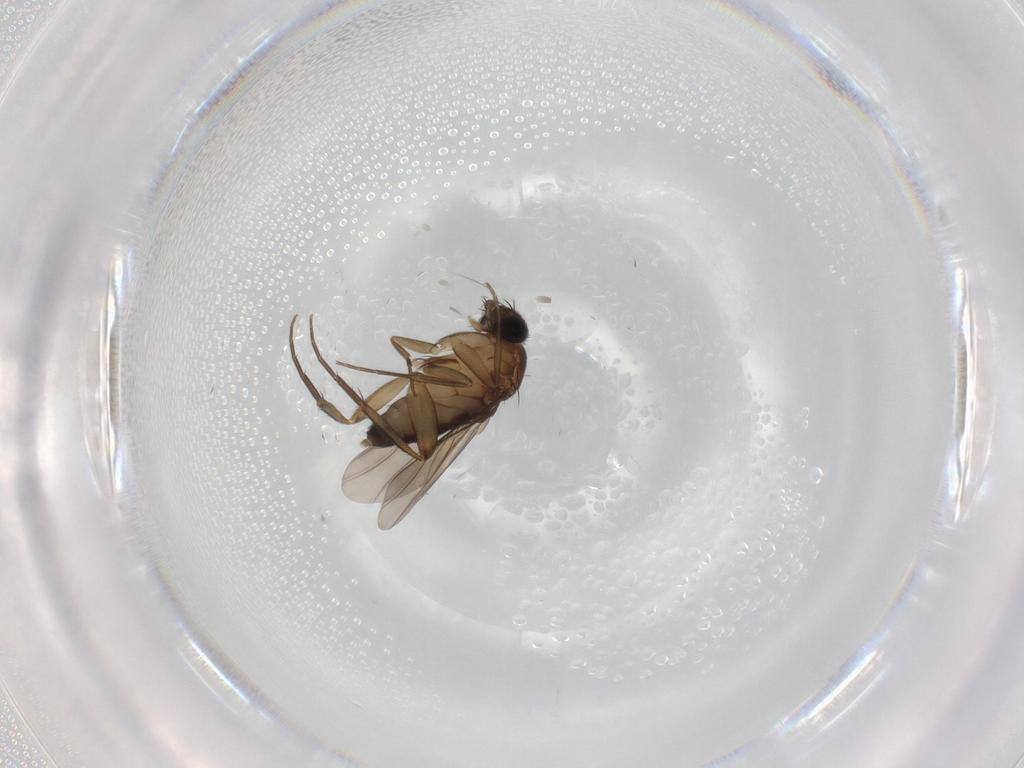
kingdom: Animalia
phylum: Arthropoda
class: Insecta
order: Diptera
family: Phoridae
